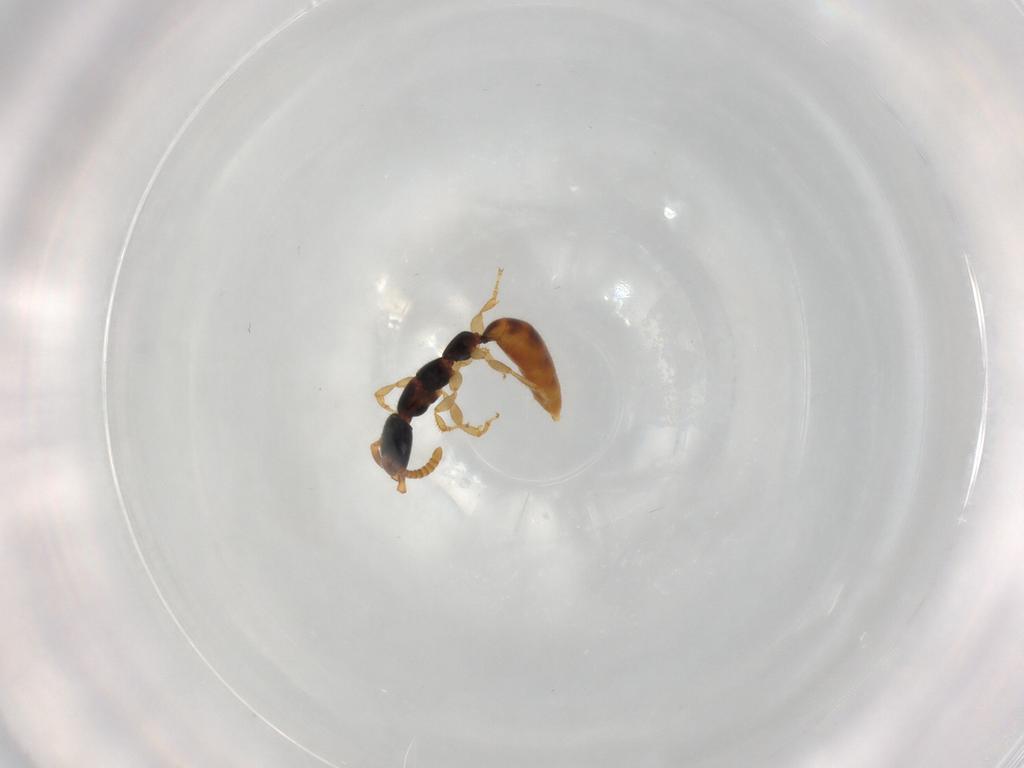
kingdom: Animalia
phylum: Arthropoda
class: Insecta
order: Hymenoptera
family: Bethylidae
